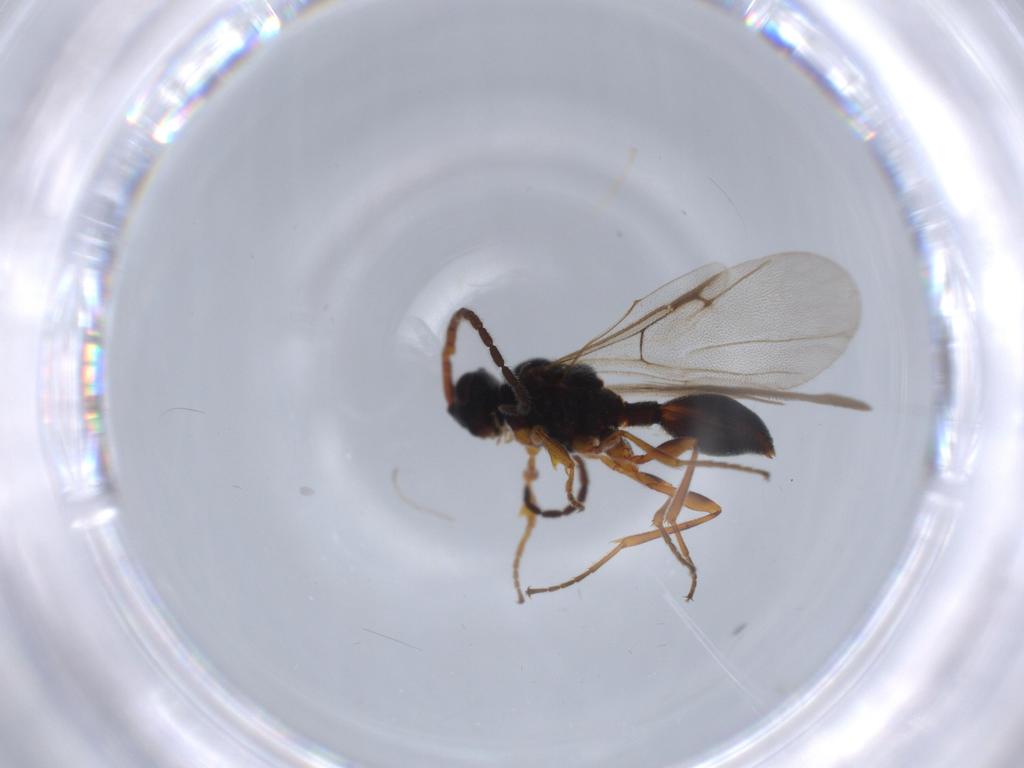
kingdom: Animalia
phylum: Arthropoda
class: Insecta
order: Hymenoptera
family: Ichneumonidae
